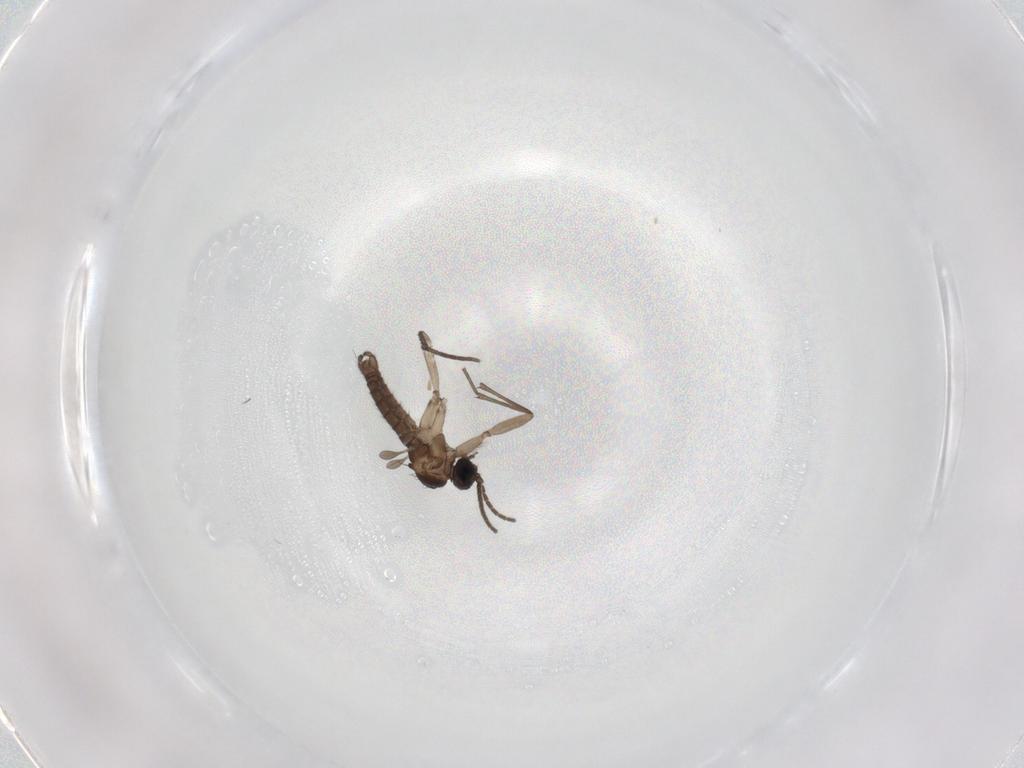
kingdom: Animalia
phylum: Arthropoda
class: Insecta
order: Diptera
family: Sciaridae
